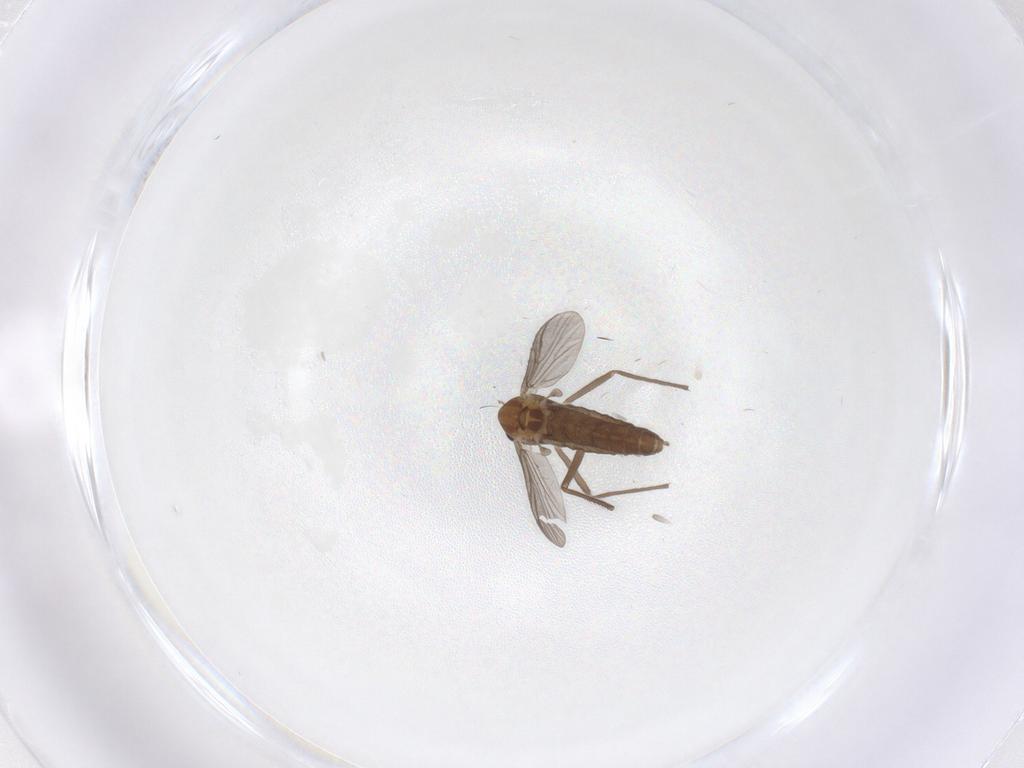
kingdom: Animalia
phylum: Arthropoda
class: Insecta
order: Diptera
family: Chironomidae
